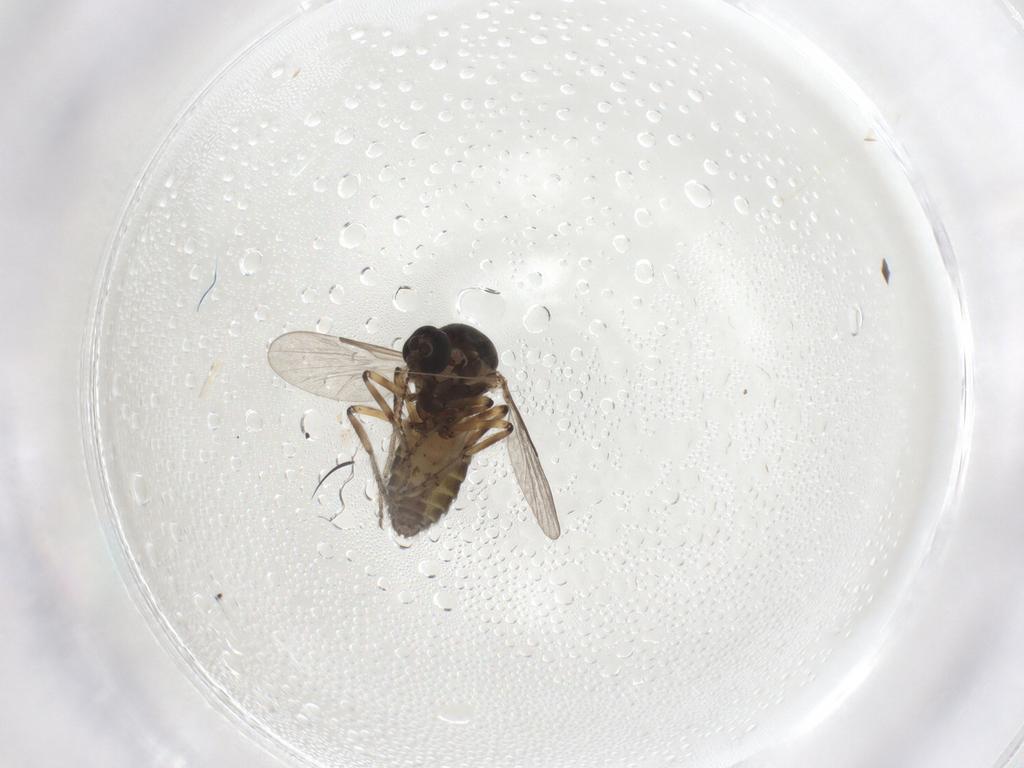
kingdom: Animalia
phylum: Arthropoda
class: Insecta
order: Diptera
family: Ceratopogonidae
